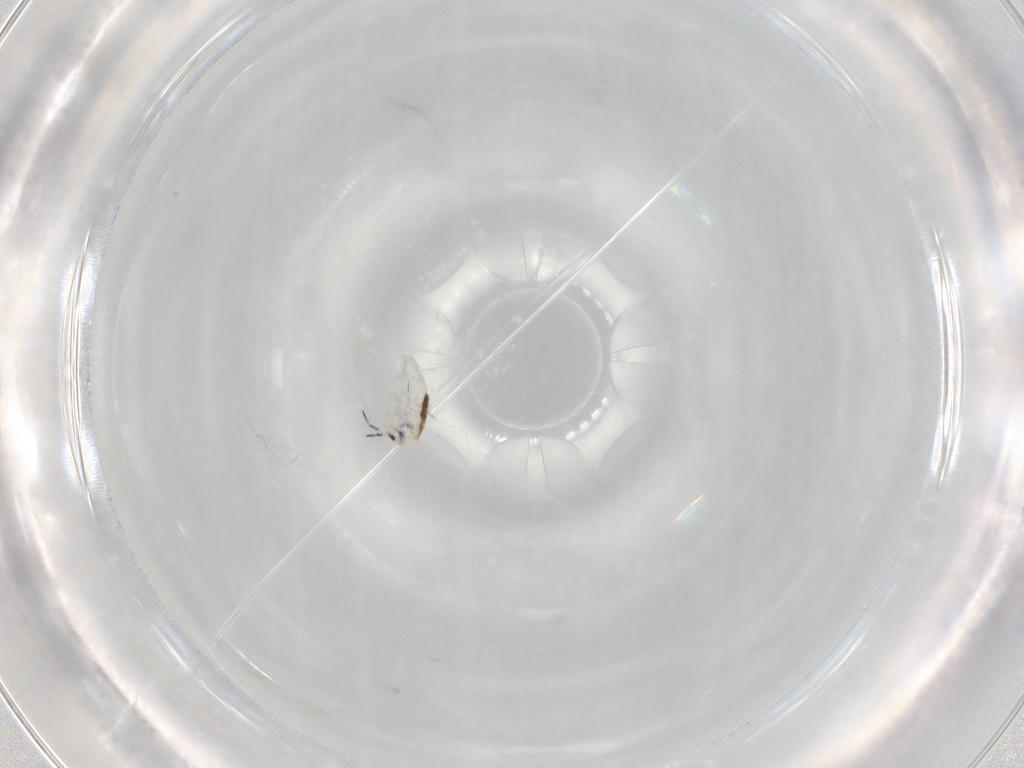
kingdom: Animalia
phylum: Arthropoda
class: Collembola
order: Entomobryomorpha
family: Entomobryidae
